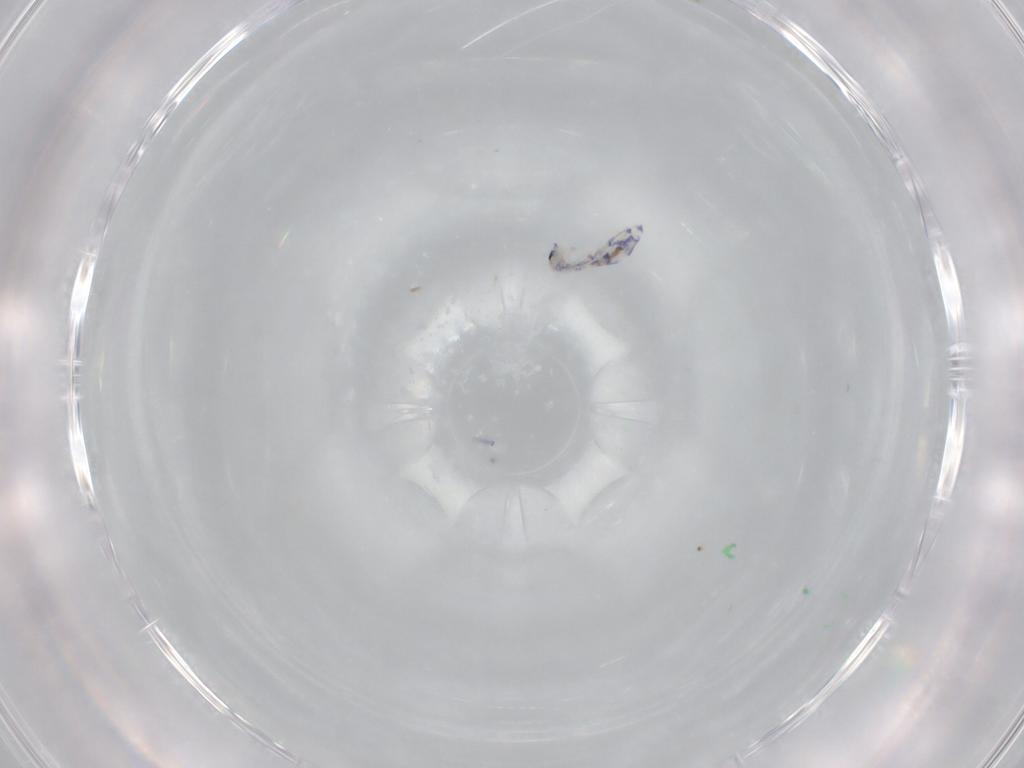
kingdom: Animalia
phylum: Arthropoda
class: Collembola
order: Entomobryomorpha
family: Entomobryidae
